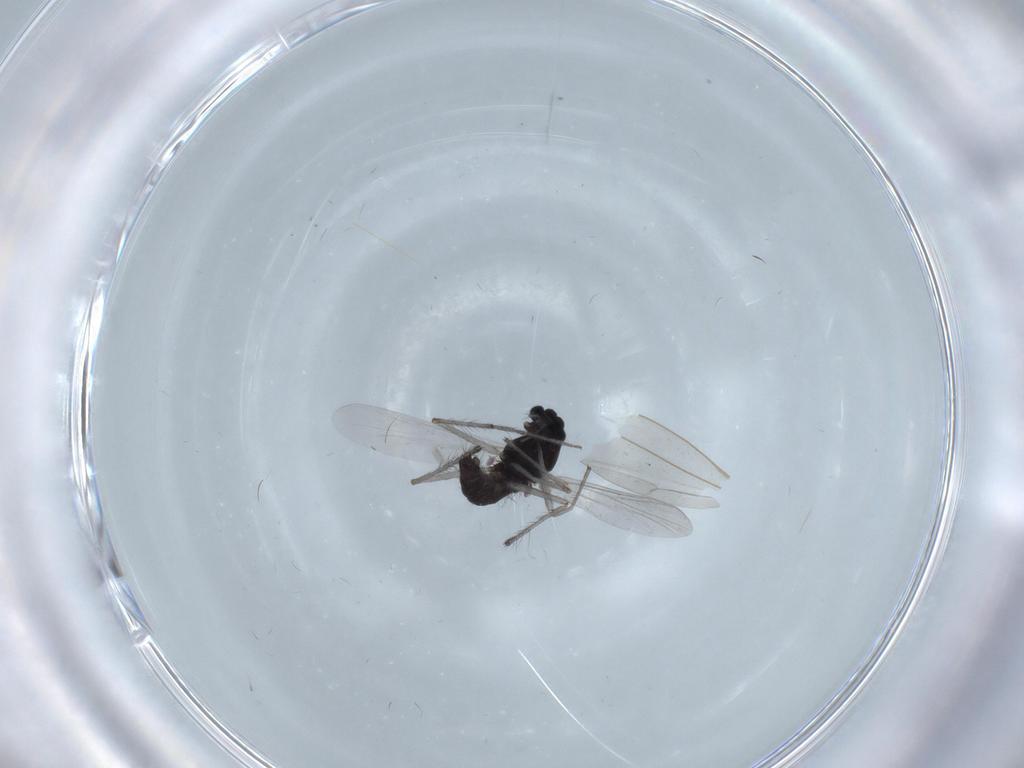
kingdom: Animalia
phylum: Arthropoda
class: Insecta
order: Diptera
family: Chironomidae
